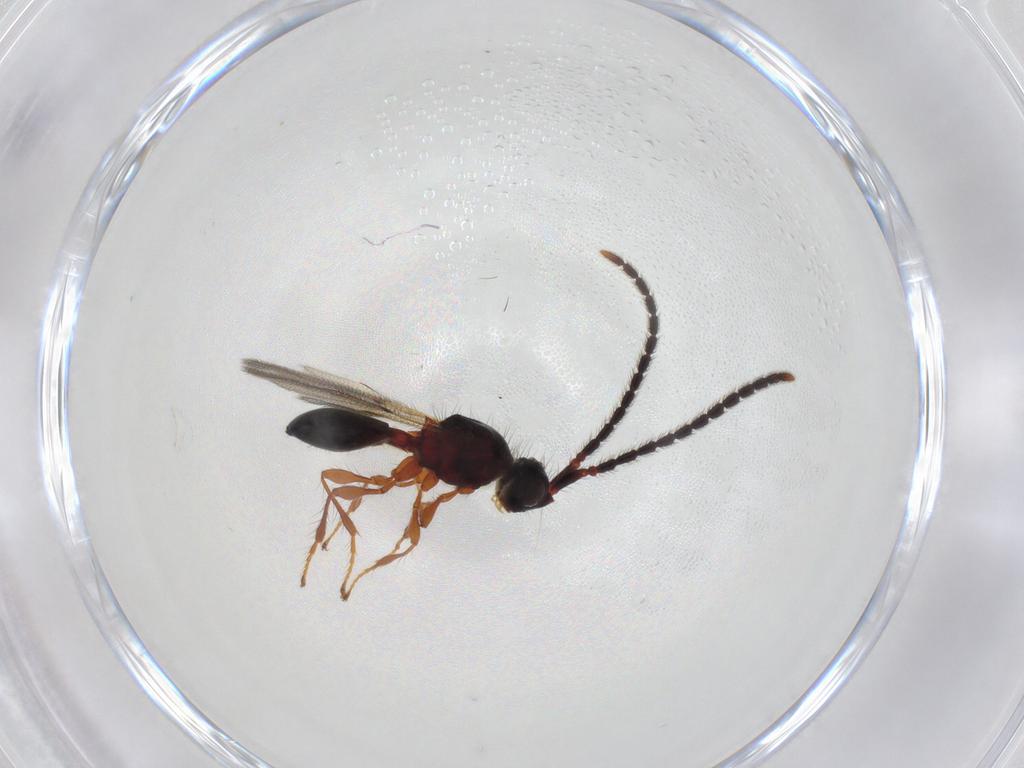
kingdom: Animalia
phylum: Arthropoda
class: Insecta
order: Hymenoptera
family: Diapriidae
